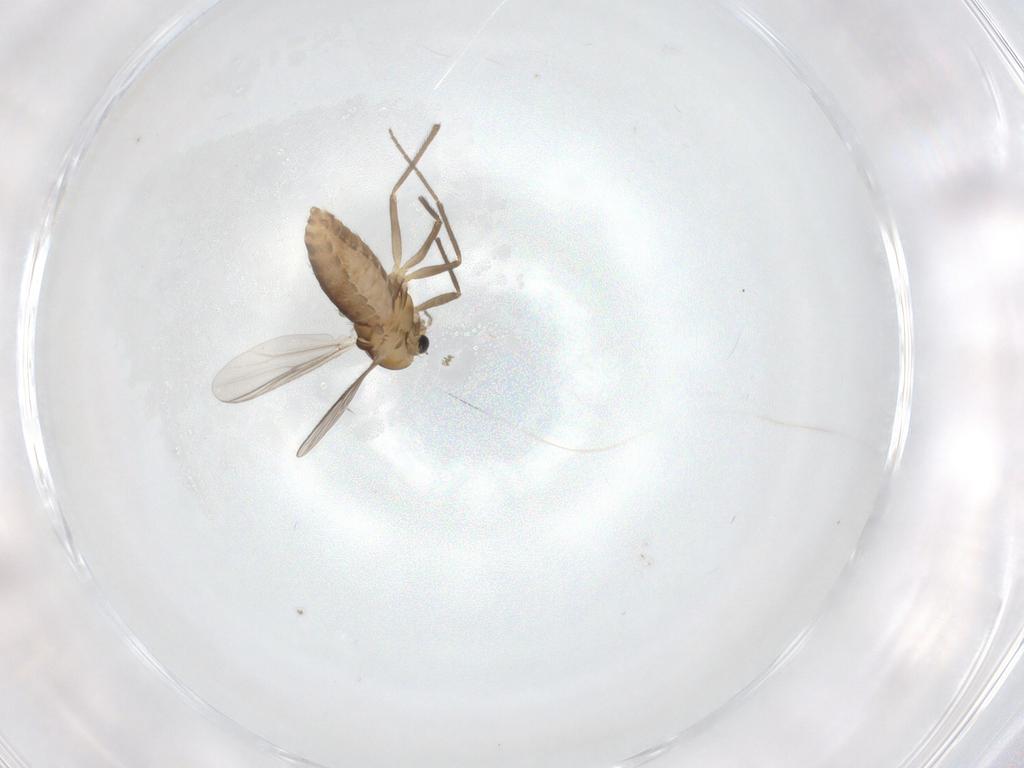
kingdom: Animalia
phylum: Arthropoda
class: Insecta
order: Diptera
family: Chironomidae
